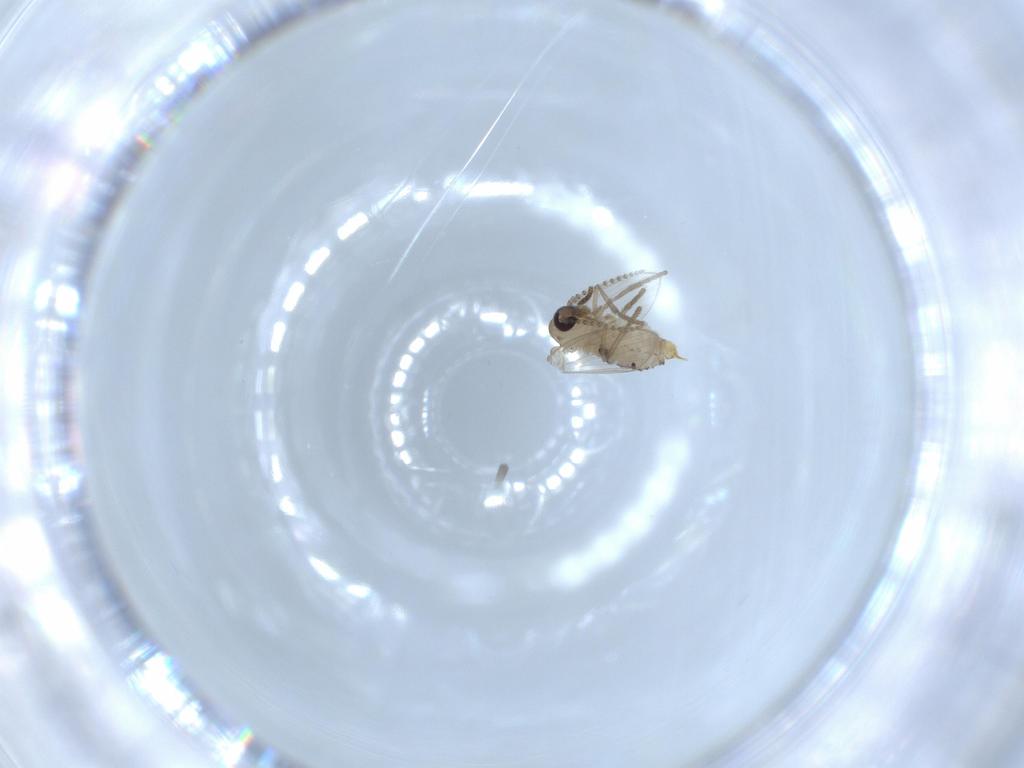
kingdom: Animalia
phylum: Arthropoda
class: Insecta
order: Diptera
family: Psychodidae
